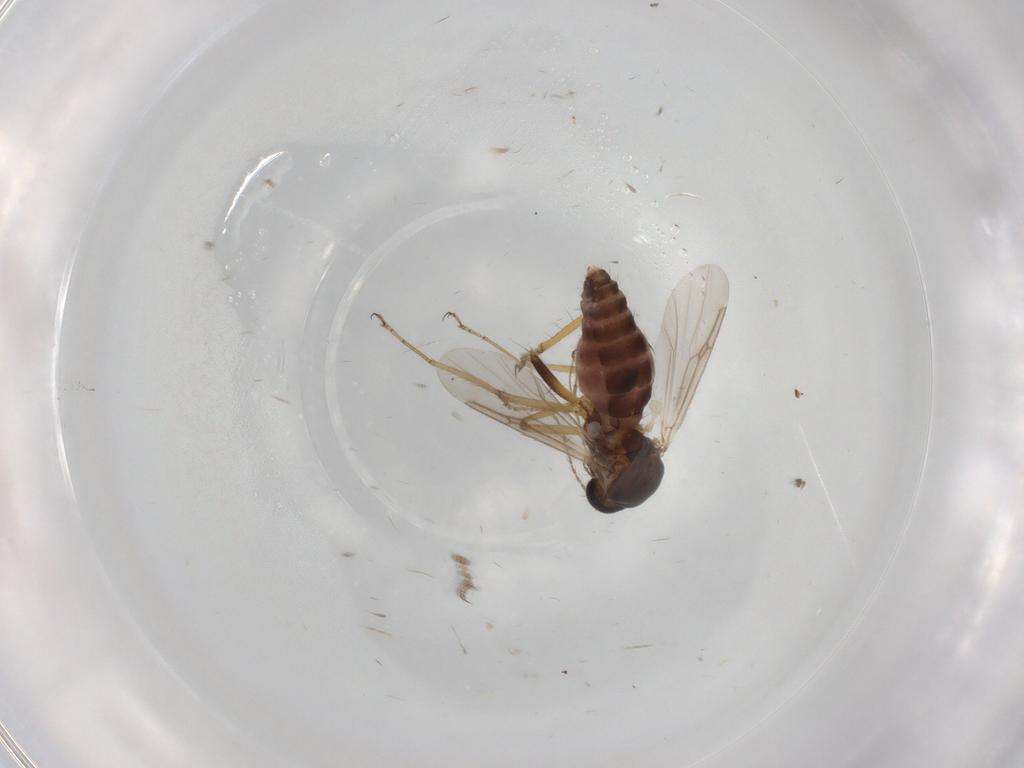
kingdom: Animalia
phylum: Arthropoda
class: Insecta
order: Diptera
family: Ceratopogonidae
